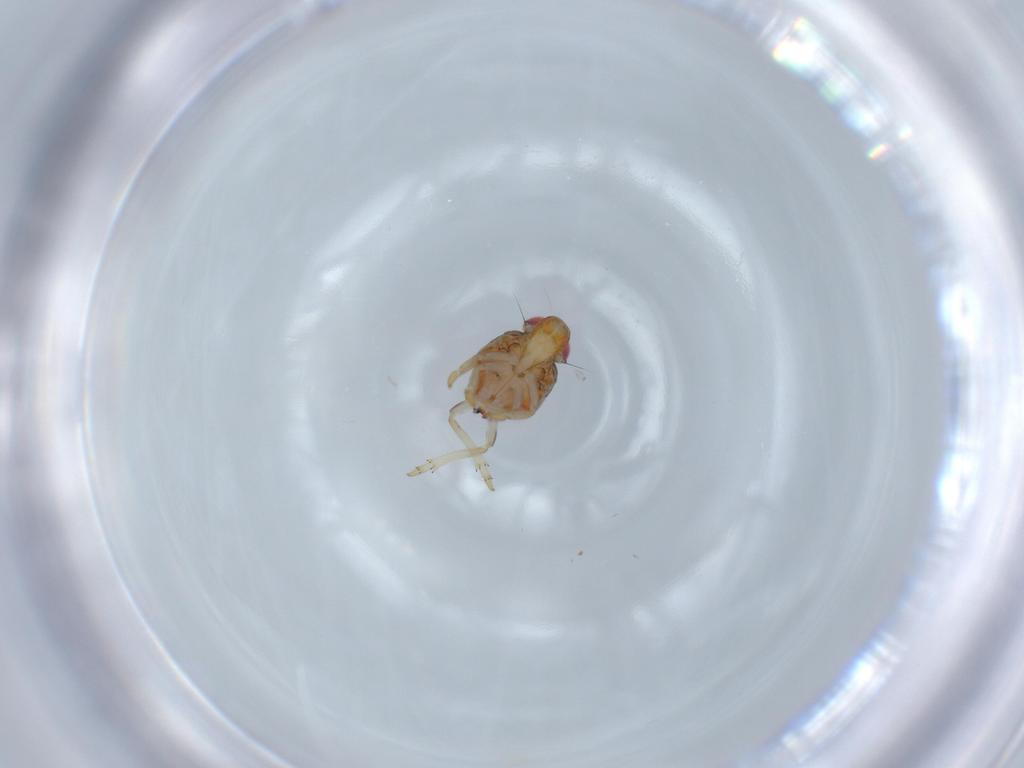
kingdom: Animalia
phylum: Arthropoda
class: Insecta
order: Hemiptera
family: Issidae
